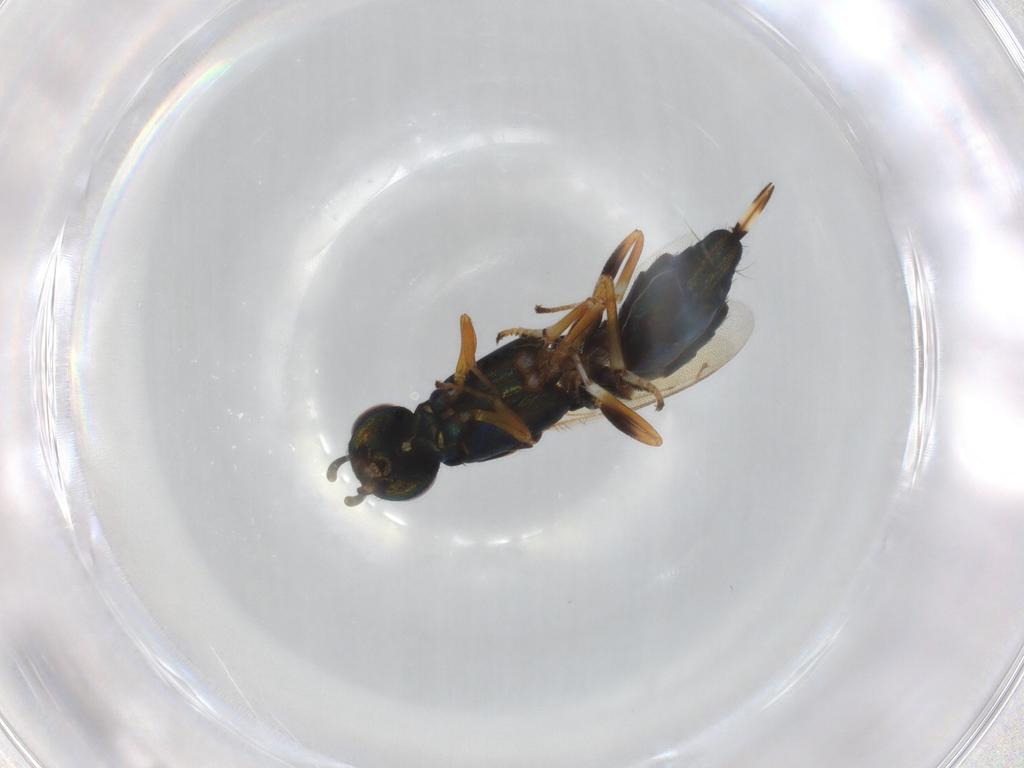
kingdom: Animalia
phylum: Arthropoda
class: Insecta
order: Hymenoptera
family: Eupelmidae
